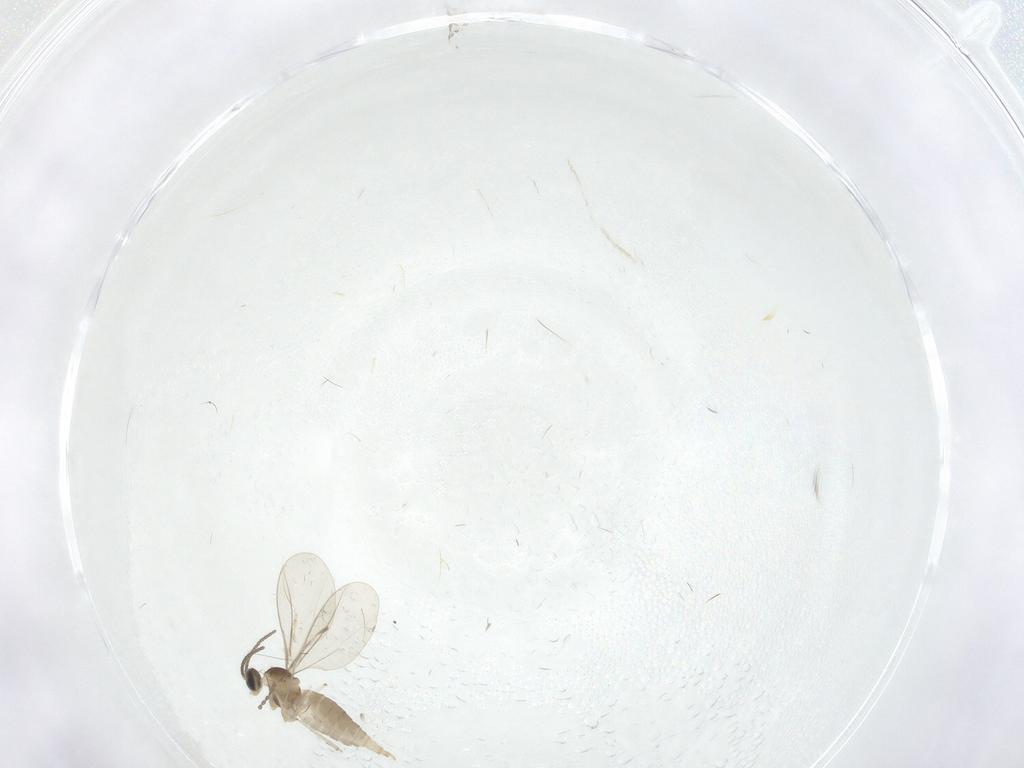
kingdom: Animalia
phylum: Arthropoda
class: Insecta
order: Diptera
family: Cecidomyiidae
